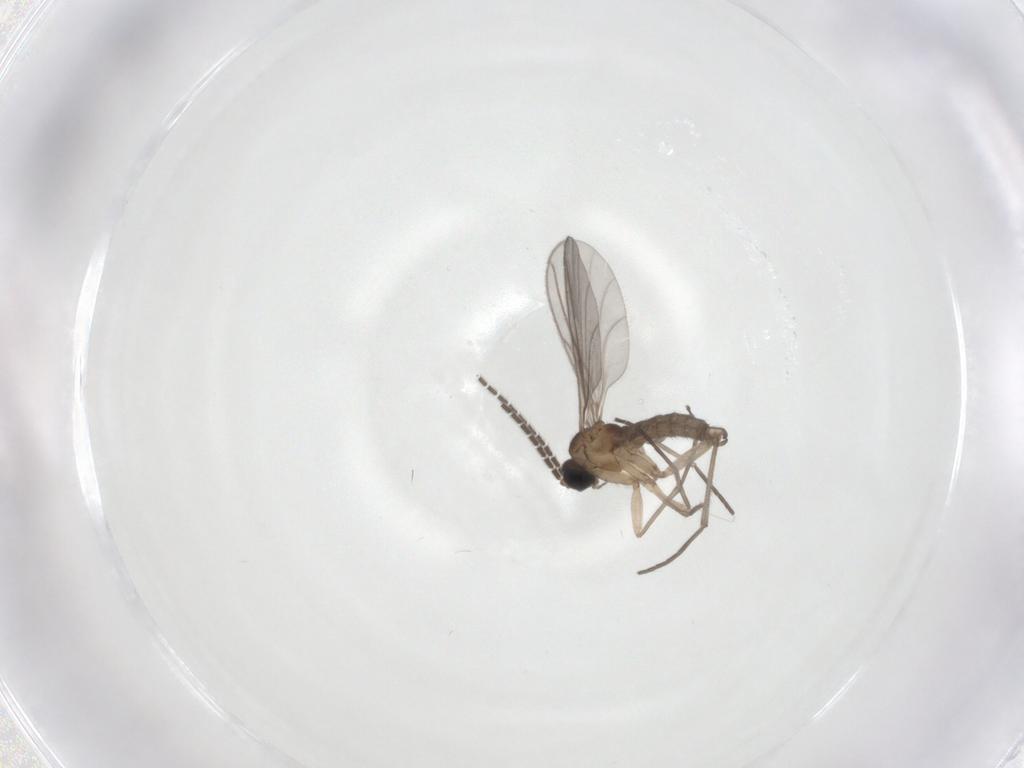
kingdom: Animalia
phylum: Arthropoda
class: Insecta
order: Diptera
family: Sciaridae
